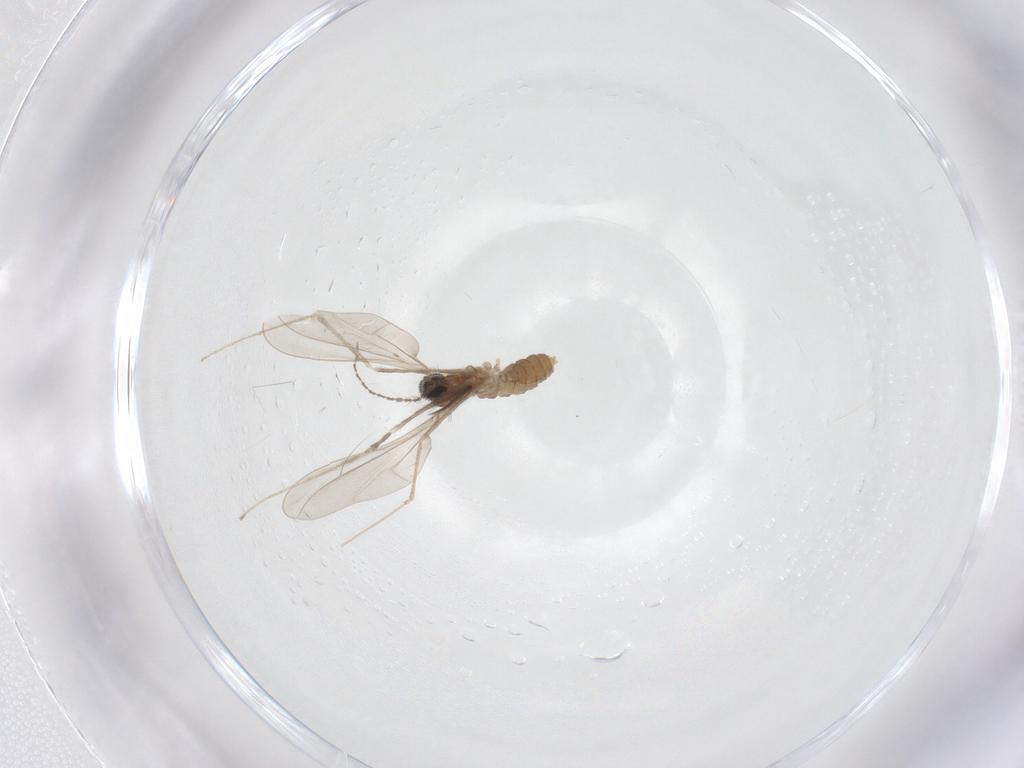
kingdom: Animalia
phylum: Arthropoda
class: Insecta
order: Diptera
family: Cecidomyiidae
